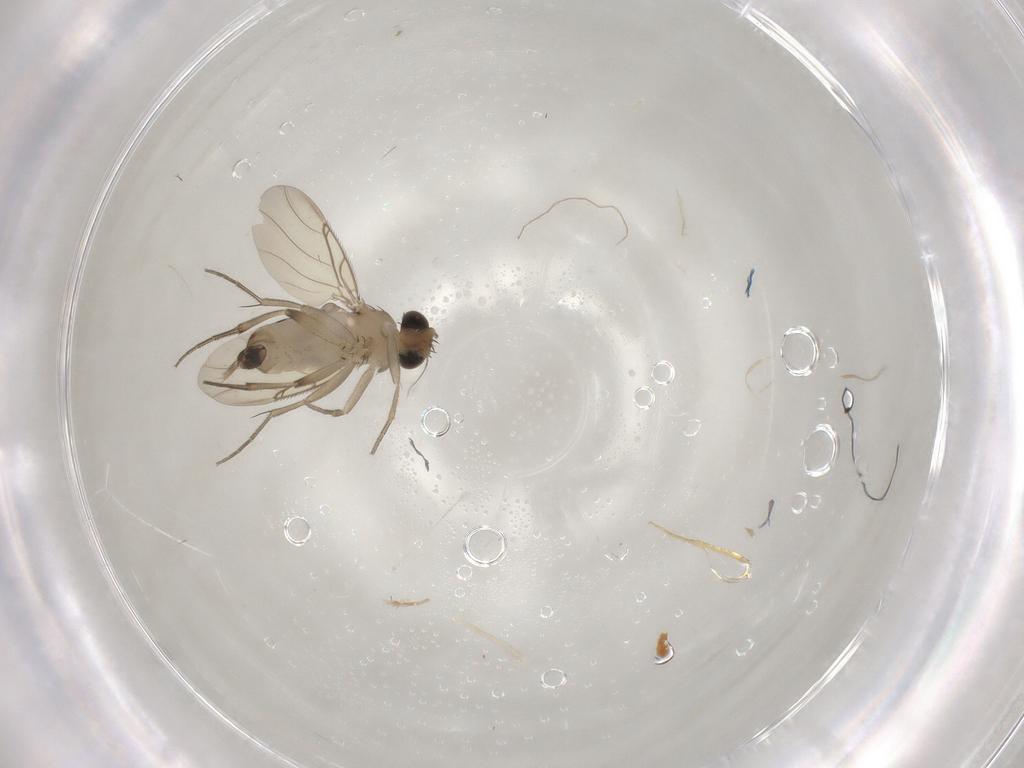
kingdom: Animalia
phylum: Arthropoda
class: Insecta
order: Diptera
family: Phoridae
